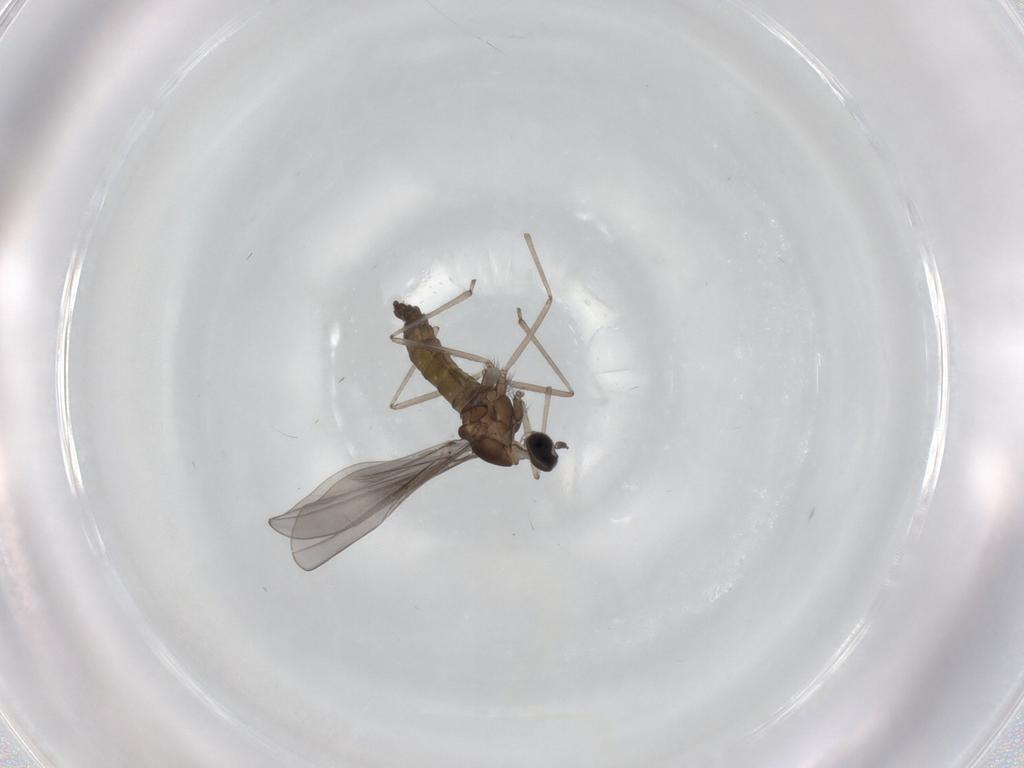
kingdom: Animalia
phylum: Arthropoda
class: Insecta
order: Diptera
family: Cecidomyiidae
